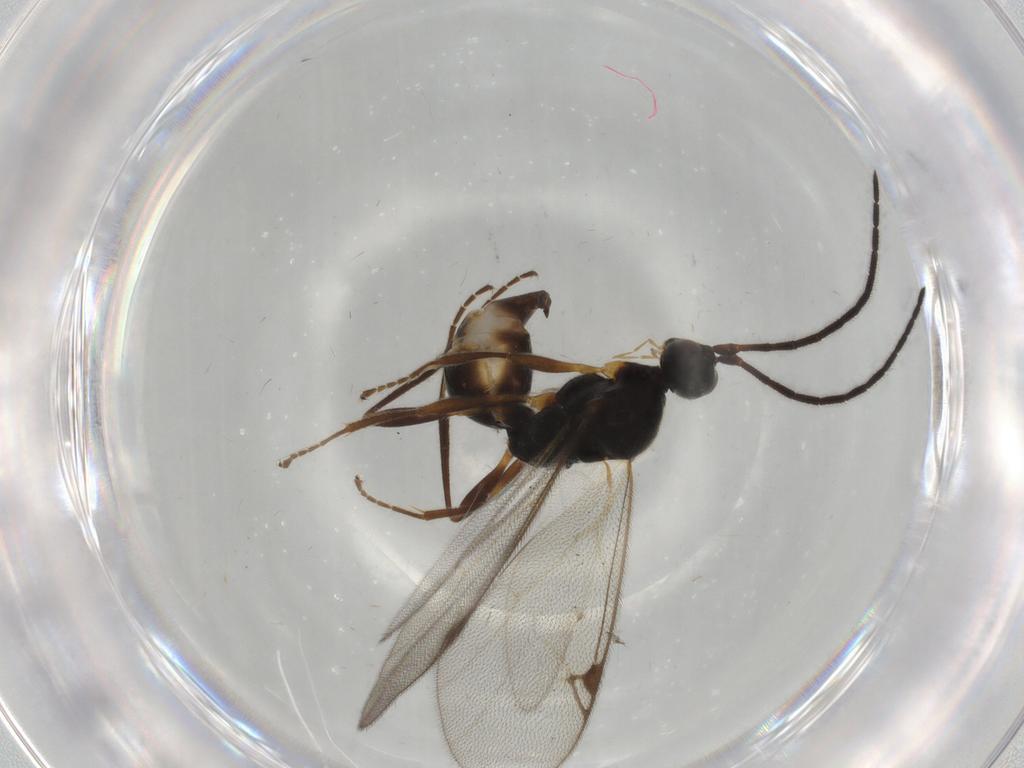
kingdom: Animalia
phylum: Arthropoda
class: Insecta
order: Hymenoptera
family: Proctotrupidae
